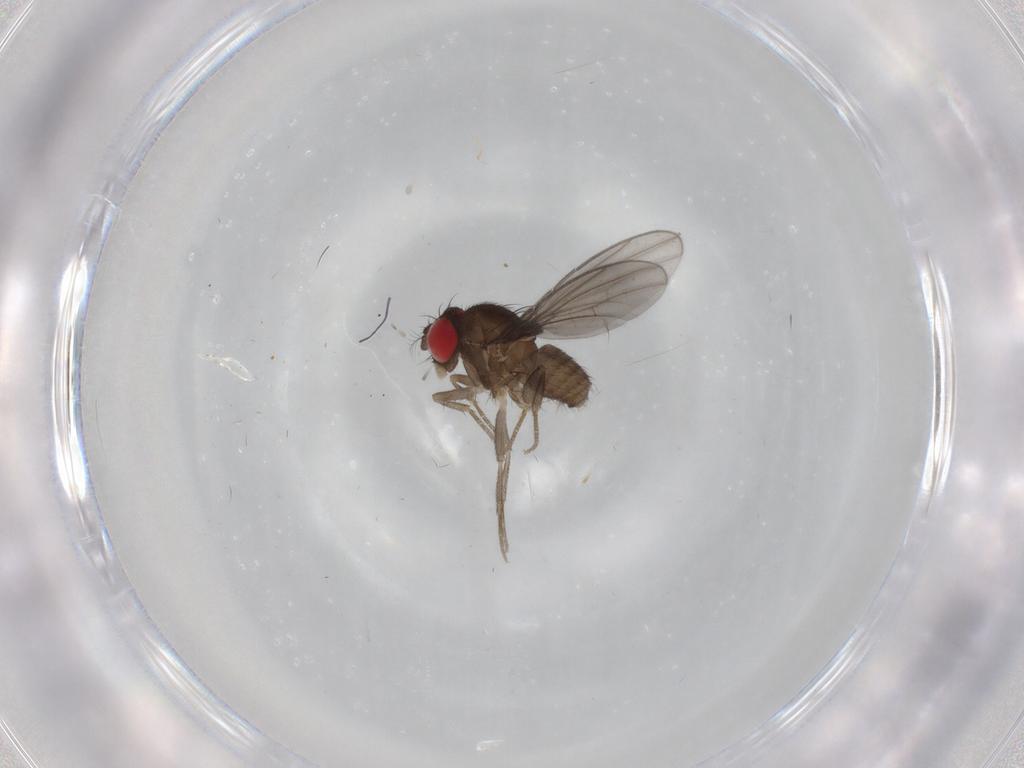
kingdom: Animalia
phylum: Arthropoda
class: Insecta
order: Diptera
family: Drosophilidae
